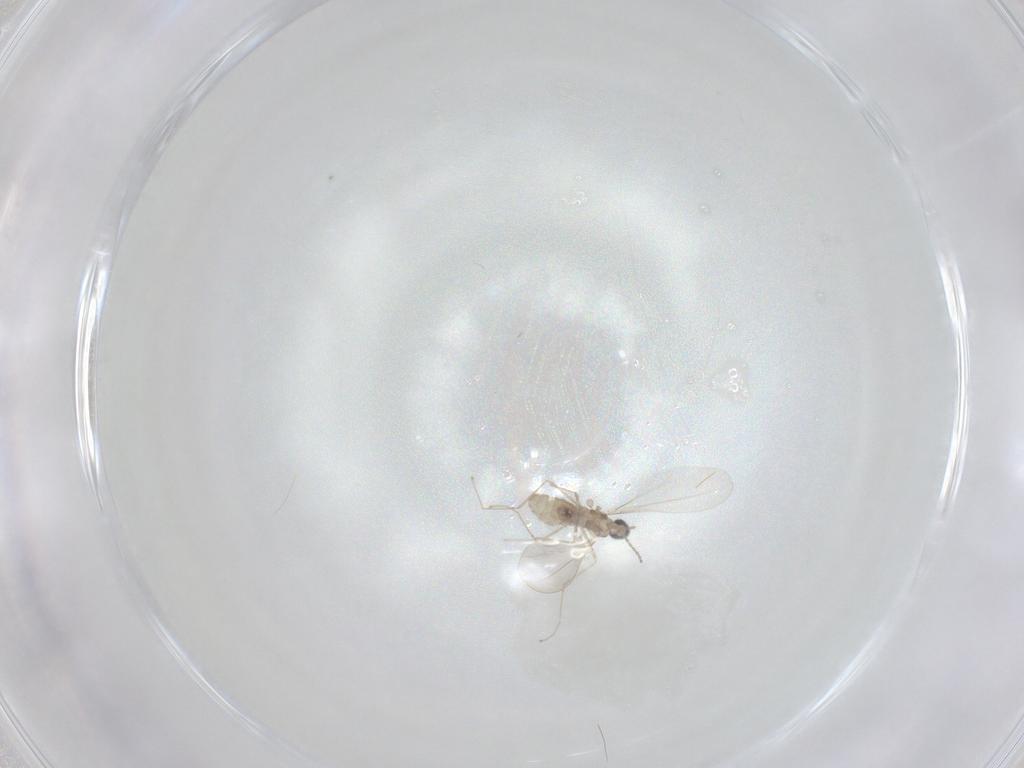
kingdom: Animalia
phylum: Arthropoda
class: Insecta
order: Diptera
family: Cecidomyiidae
